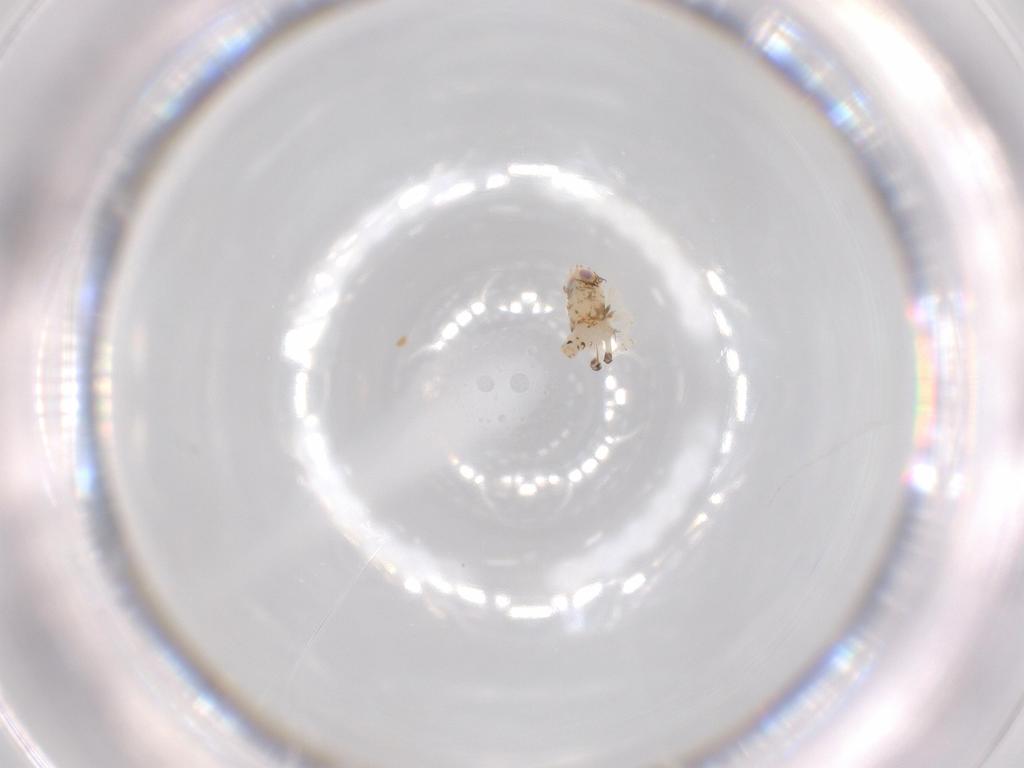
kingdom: Animalia
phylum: Arthropoda
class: Insecta
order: Hemiptera
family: Nogodinidae
